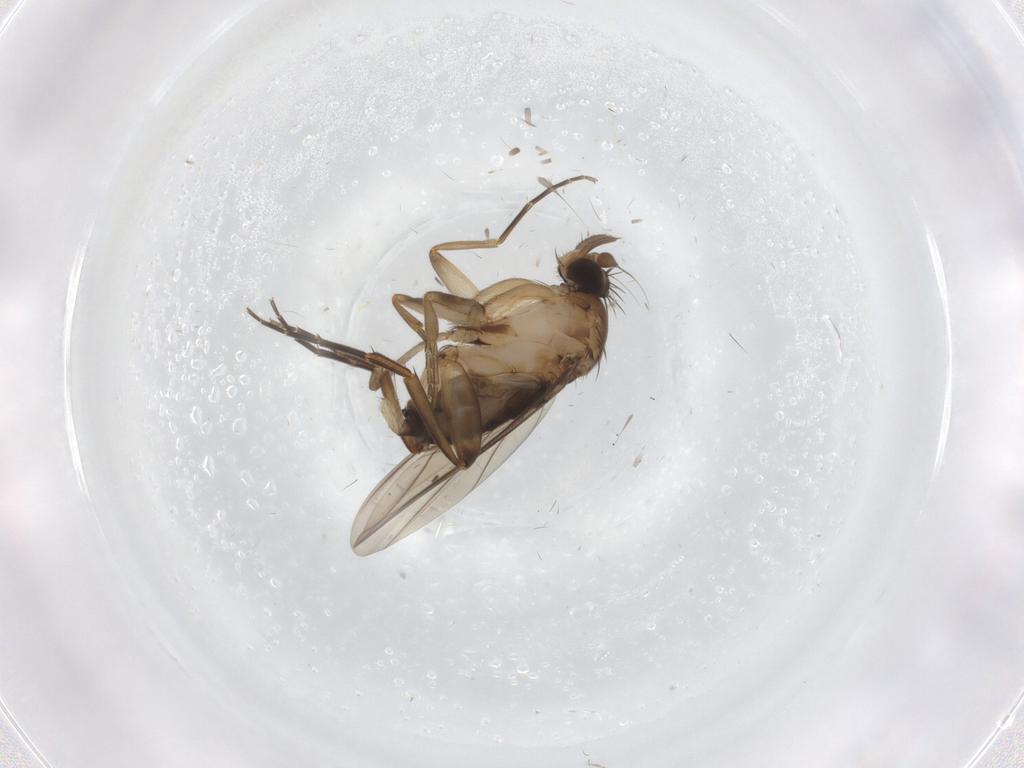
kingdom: Animalia
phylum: Arthropoda
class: Insecta
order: Diptera
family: Phoridae
